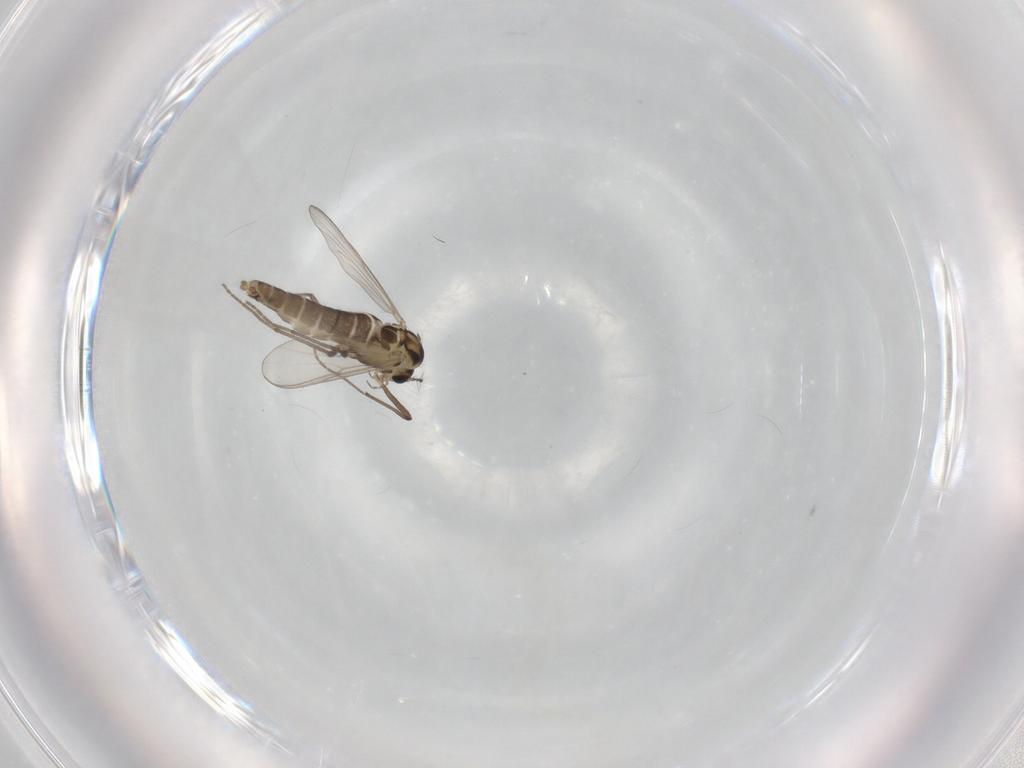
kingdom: Animalia
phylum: Arthropoda
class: Insecta
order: Diptera
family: Chironomidae
